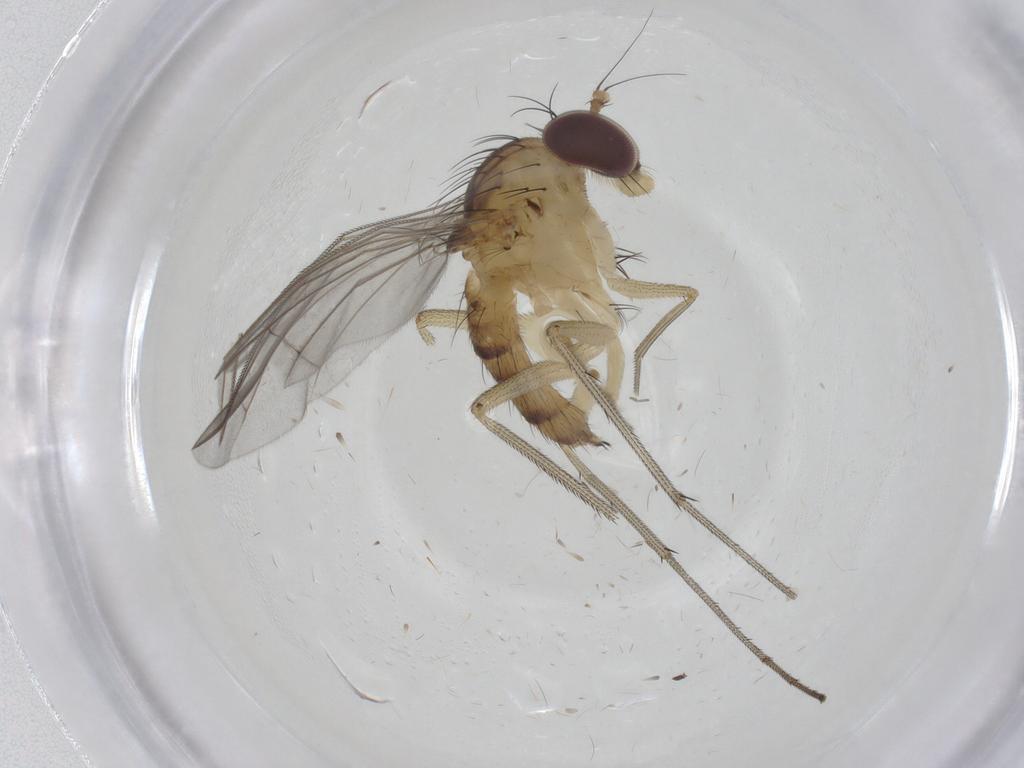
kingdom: Animalia
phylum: Arthropoda
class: Insecta
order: Diptera
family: Dolichopodidae
